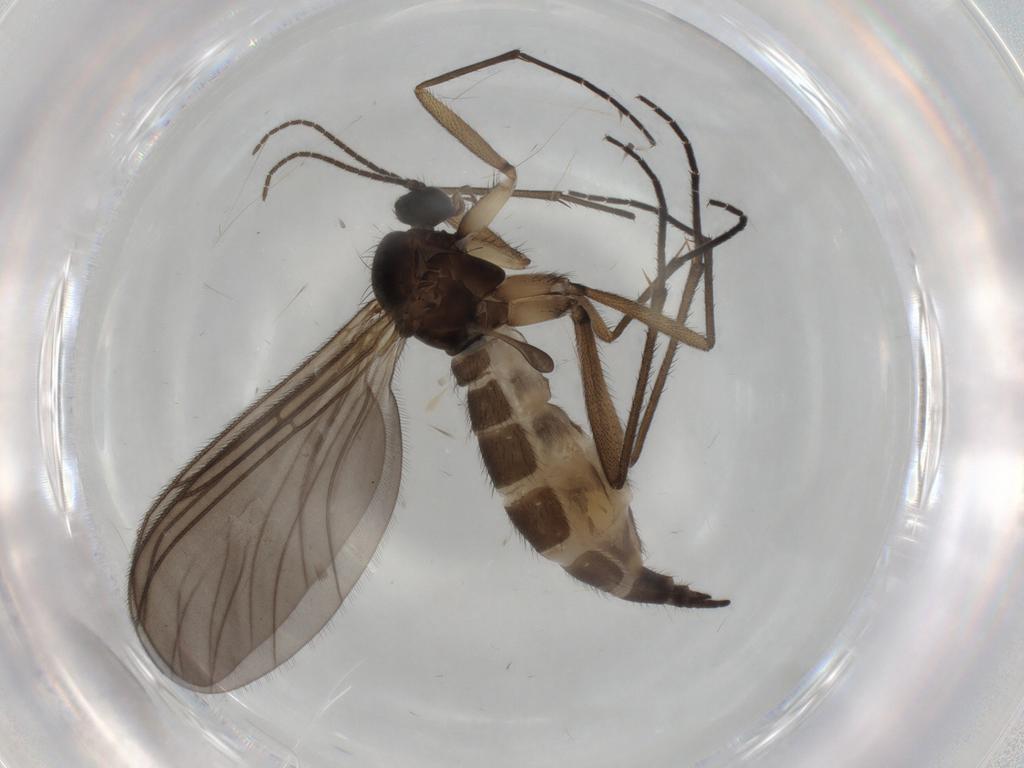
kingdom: Animalia
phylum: Arthropoda
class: Insecta
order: Diptera
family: Sciaridae
